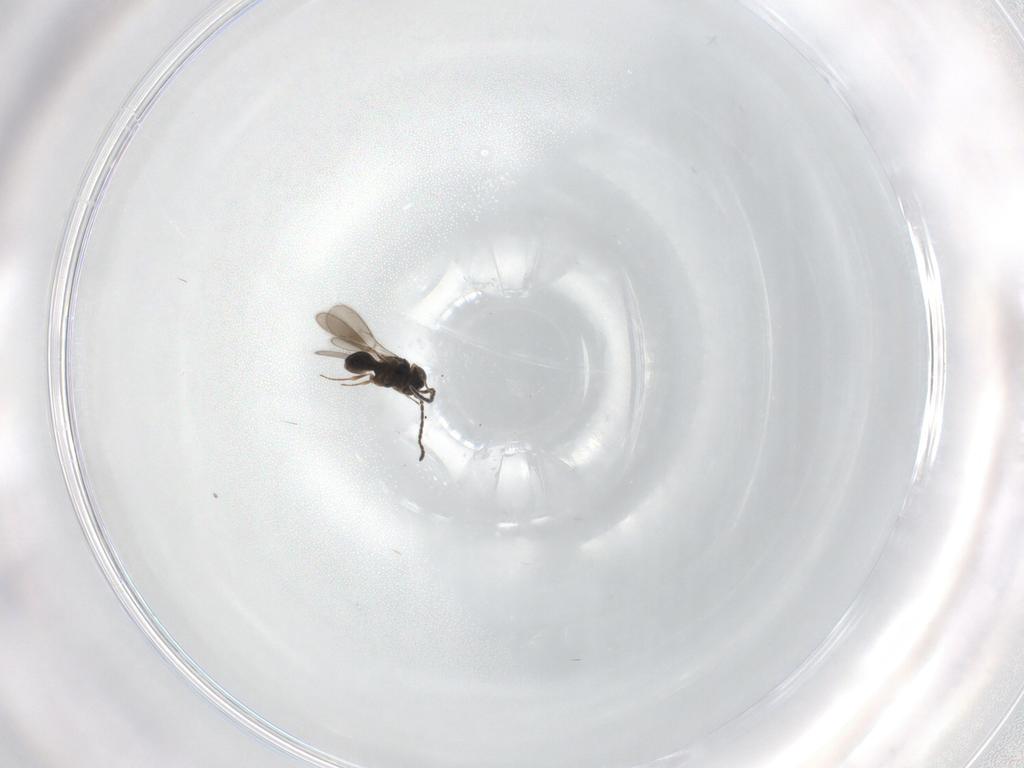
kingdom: Animalia
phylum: Arthropoda
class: Insecta
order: Hymenoptera
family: Scelionidae
